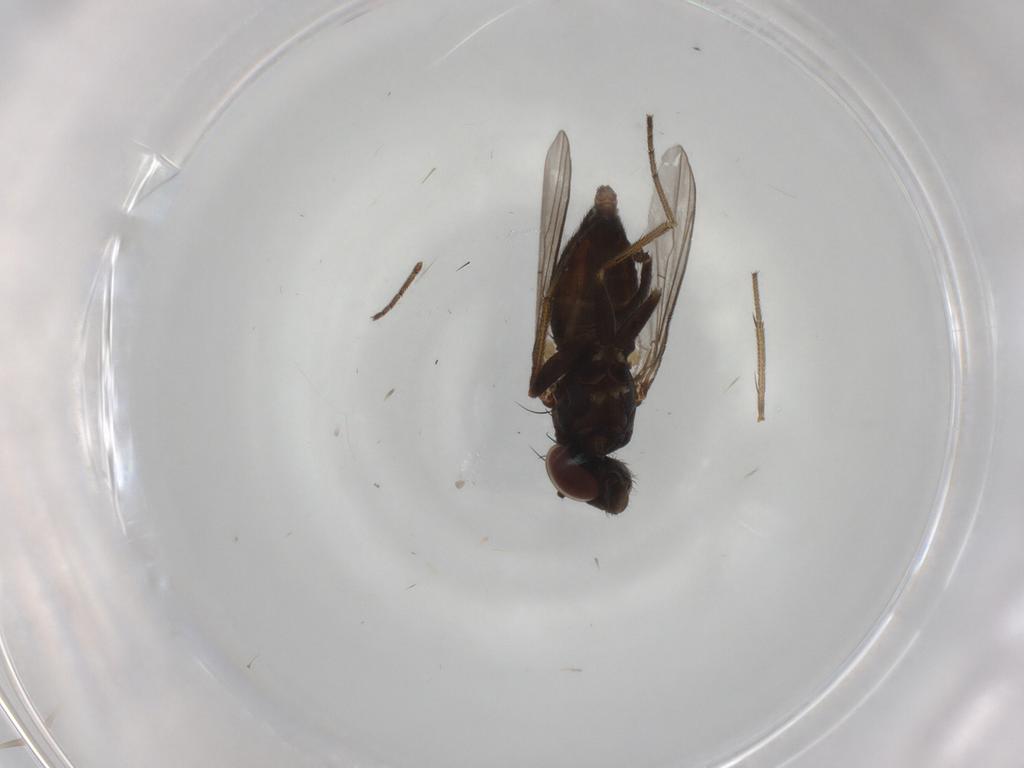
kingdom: Animalia
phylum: Arthropoda
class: Insecta
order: Diptera
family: Dolichopodidae
